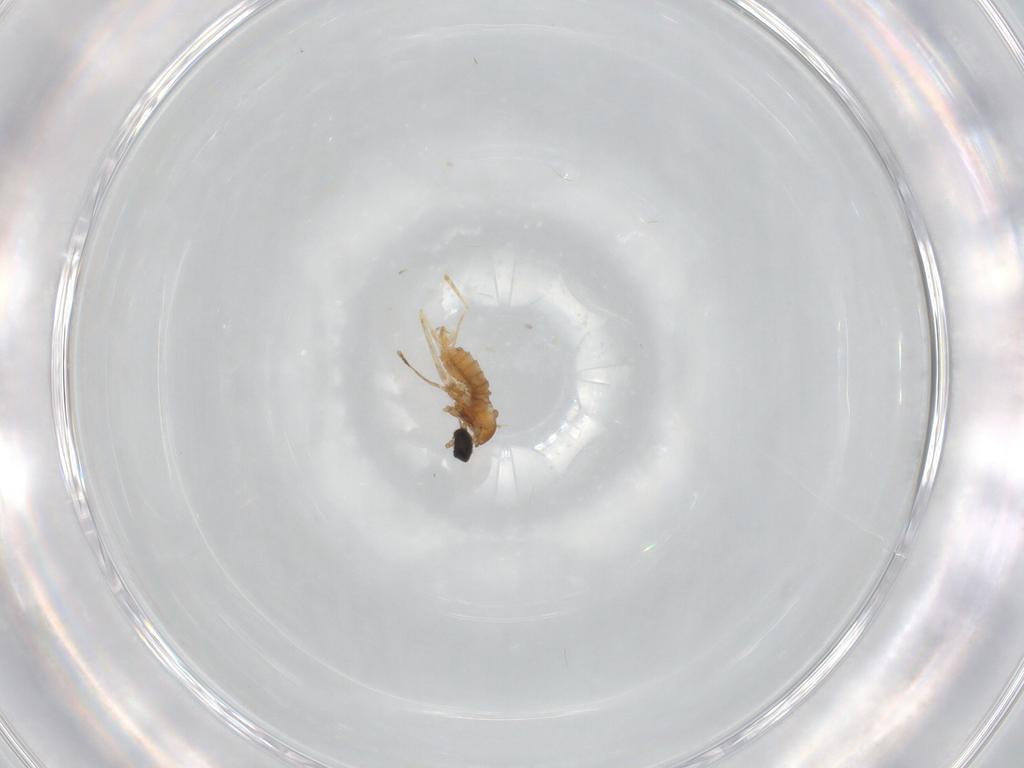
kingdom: Animalia
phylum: Arthropoda
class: Insecta
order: Diptera
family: Cecidomyiidae
